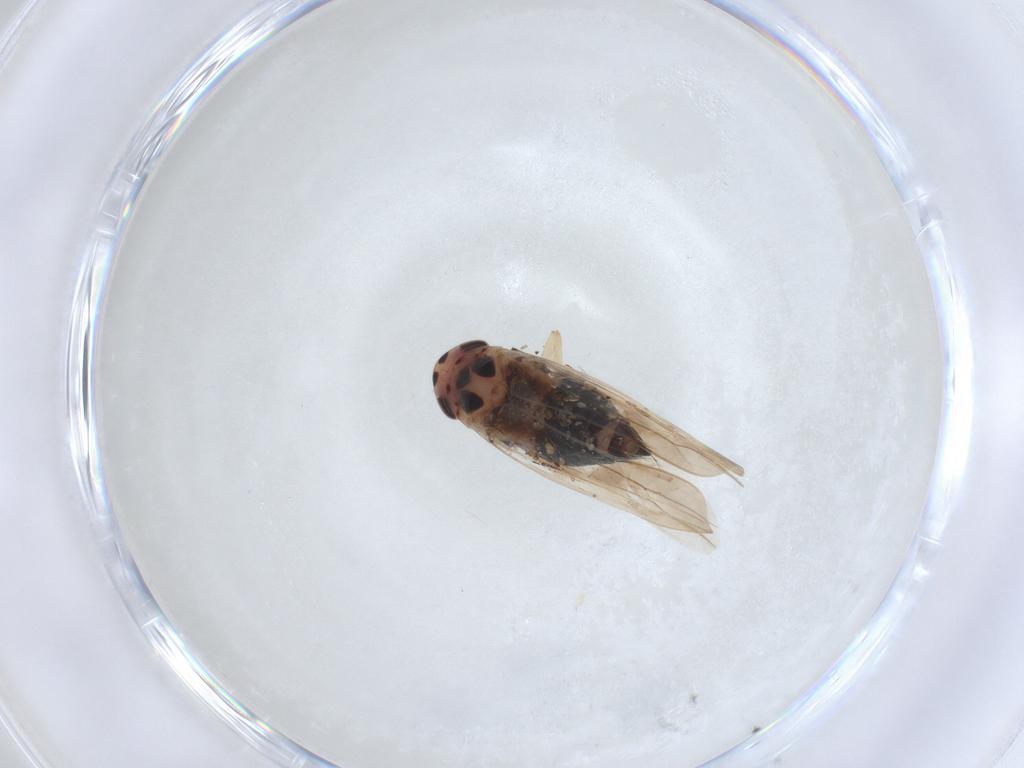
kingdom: Animalia
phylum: Arthropoda
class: Insecta
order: Hemiptera
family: Cicadellidae
